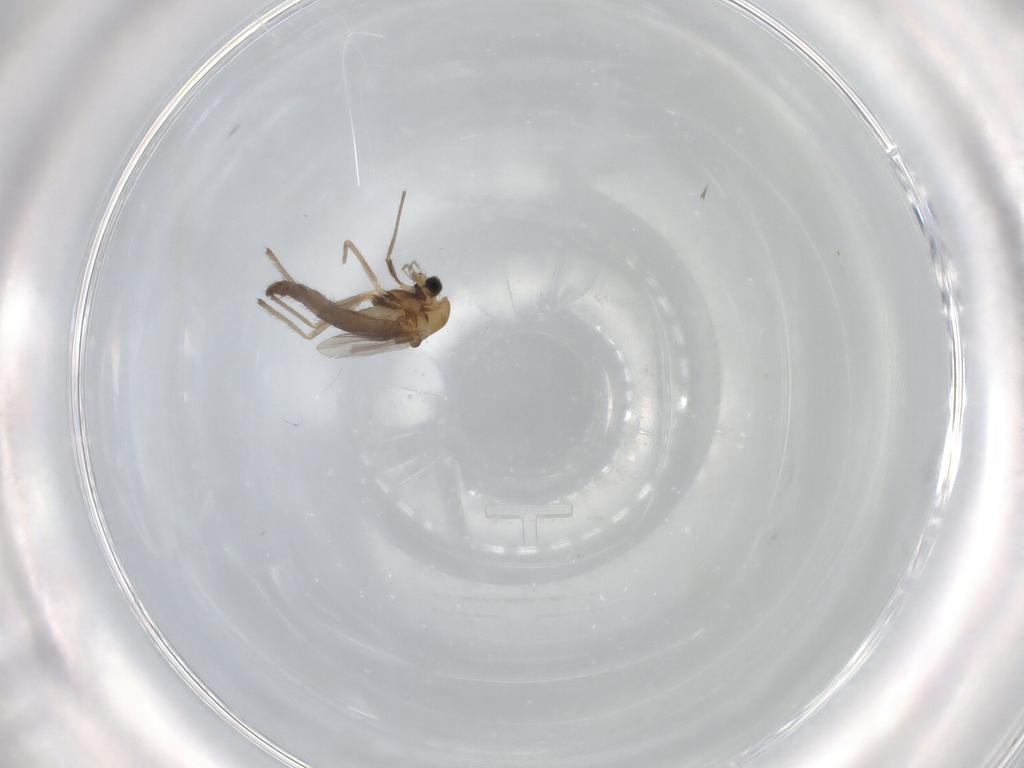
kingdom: Animalia
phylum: Arthropoda
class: Insecta
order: Diptera
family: Chironomidae
